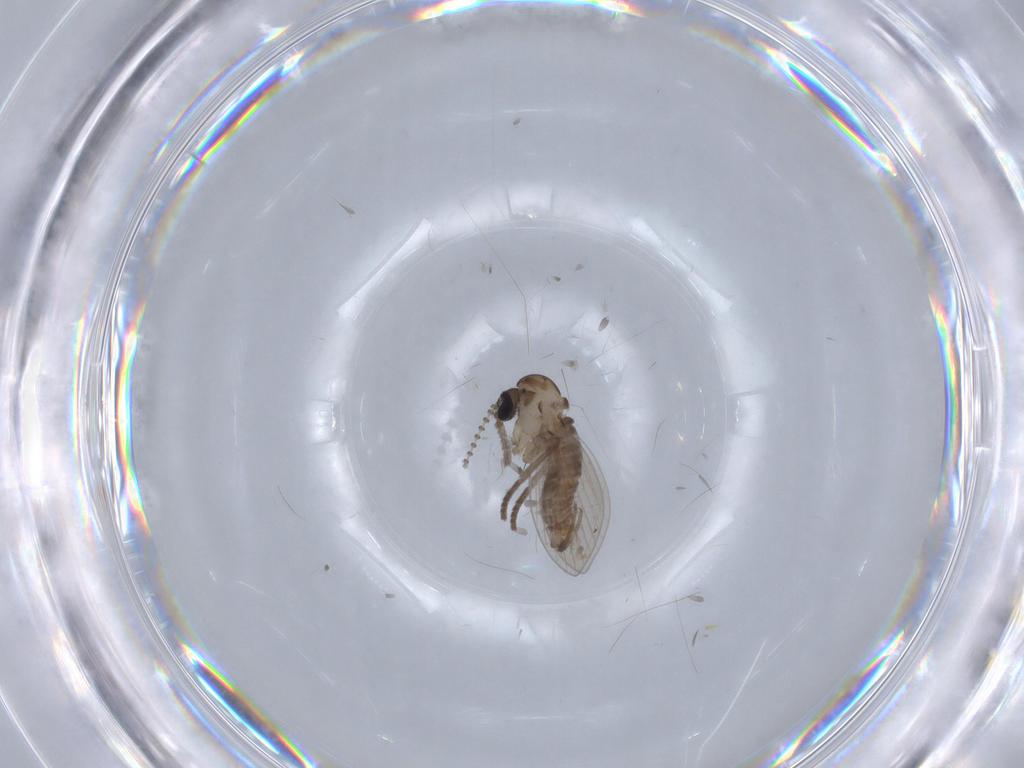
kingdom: Animalia
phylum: Arthropoda
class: Insecta
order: Diptera
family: Psychodidae
